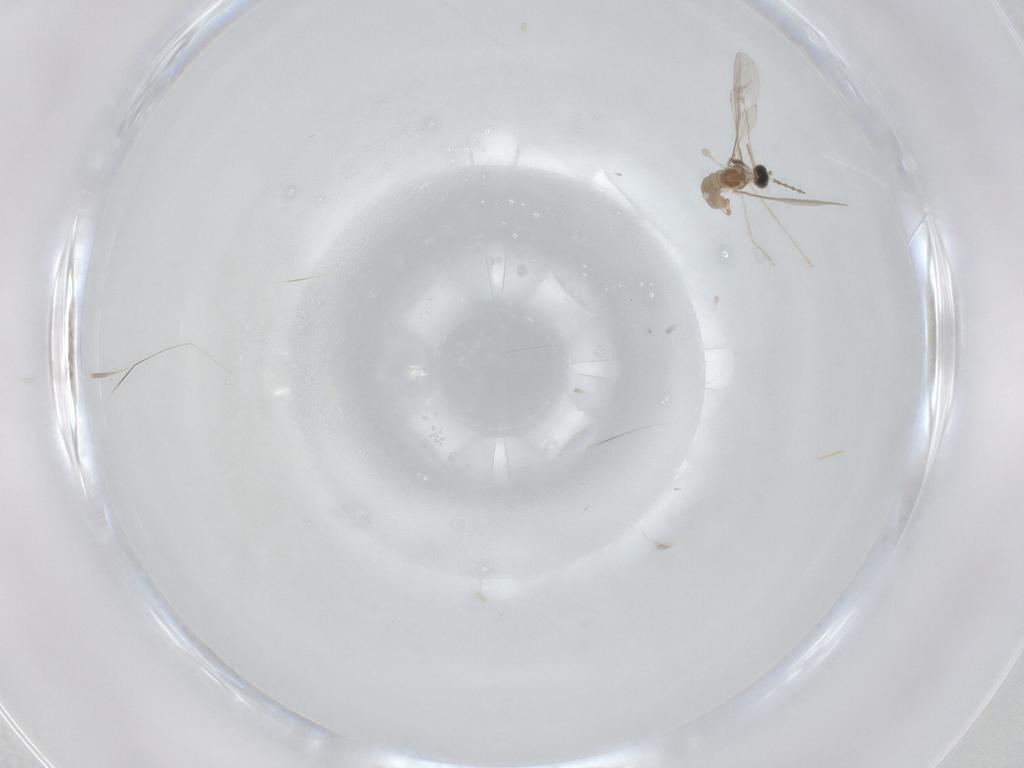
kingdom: Animalia
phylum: Arthropoda
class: Insecta
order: Diptera
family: Cecidomyiidae
